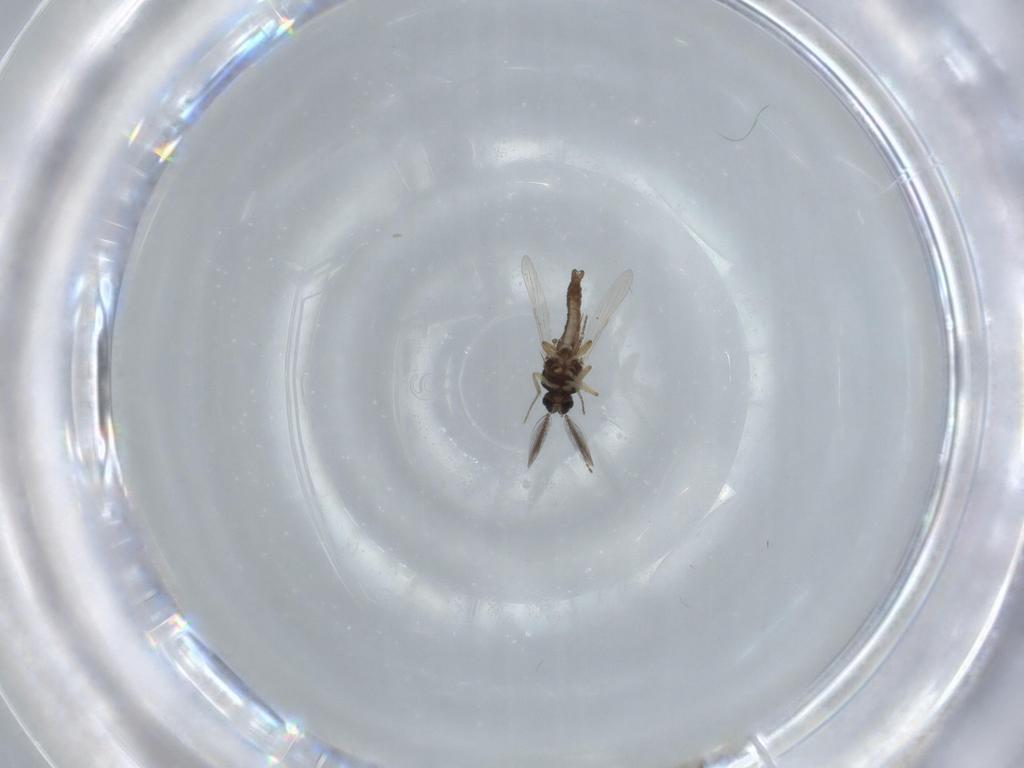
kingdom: Animalia
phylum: Arthropoda
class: Insecta
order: Diptera
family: Ceratopogonidae
